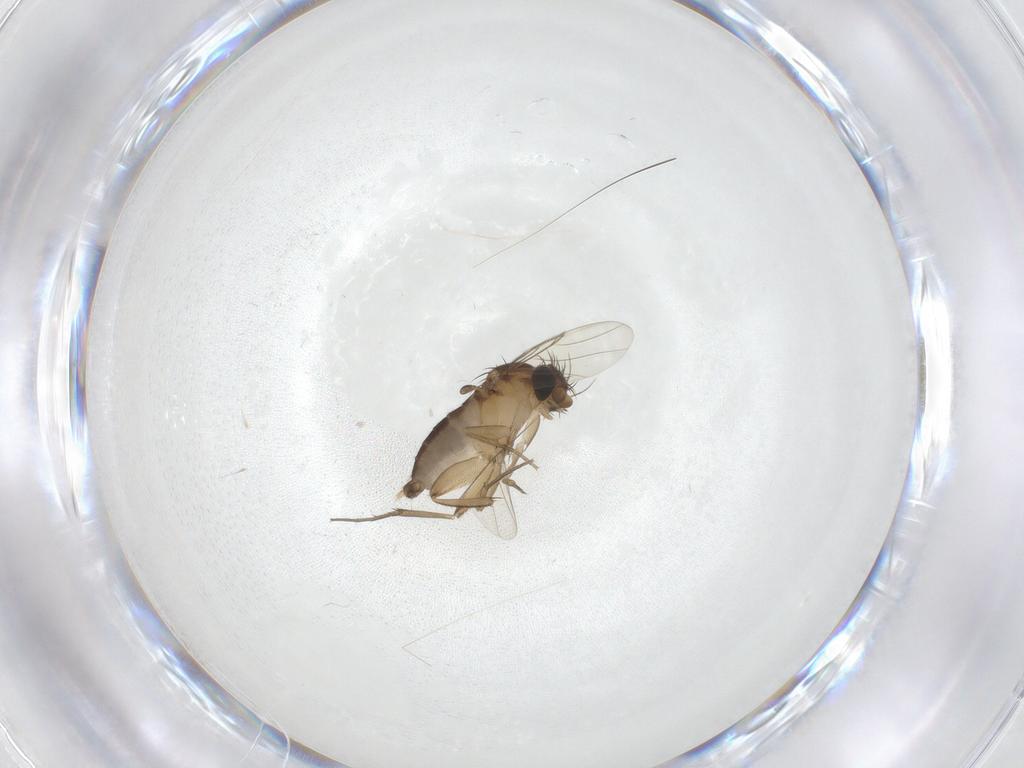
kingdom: Animalia
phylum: Arthropoda
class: Insecta
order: Diptera
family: Phoridae
